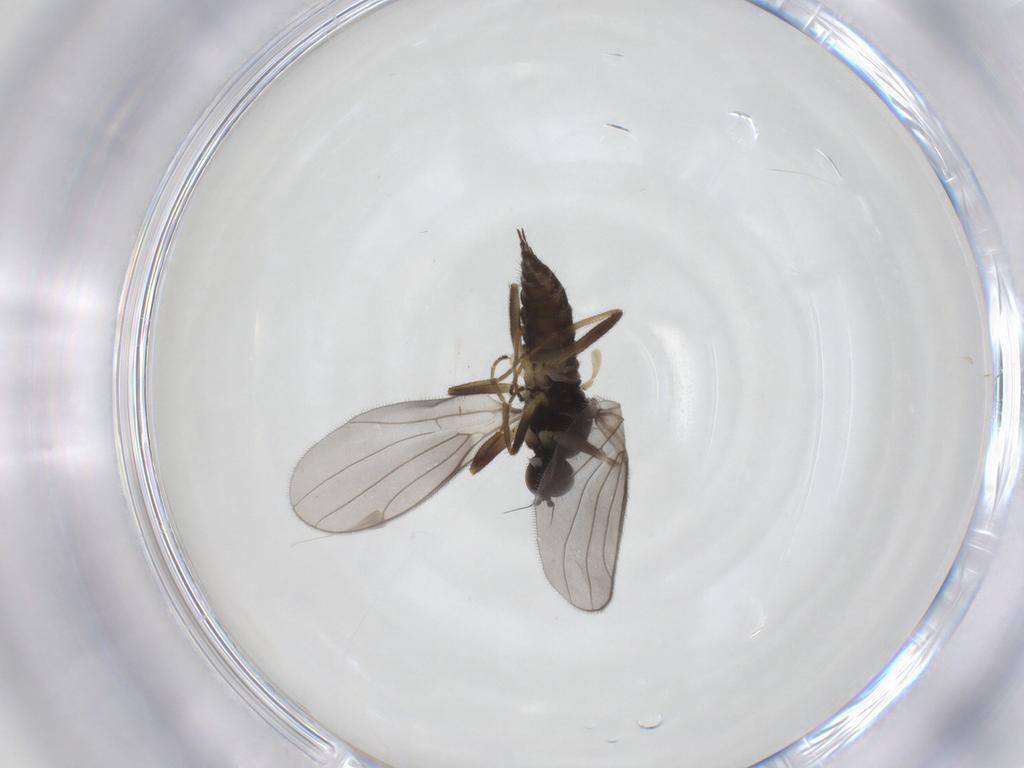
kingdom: Animalia
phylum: Arthropoda
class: Insecta
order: Diptera
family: Hybotidae
